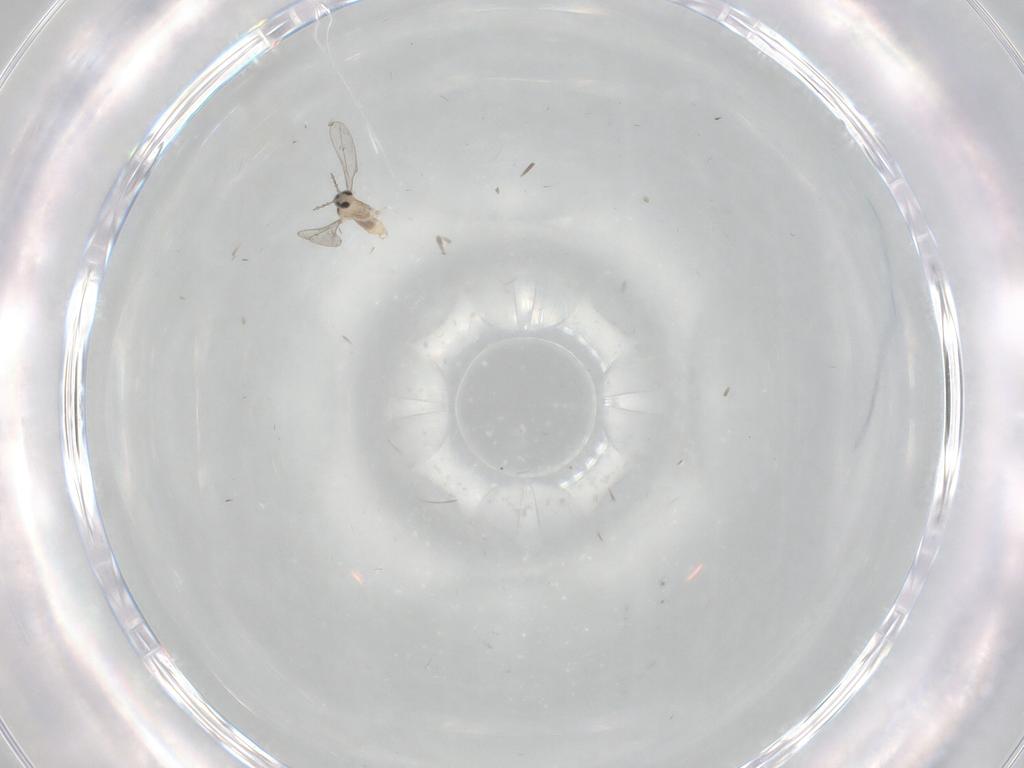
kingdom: Animalia
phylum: Arthropoda
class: Insecta
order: Diptera
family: Cecidomyiidae
